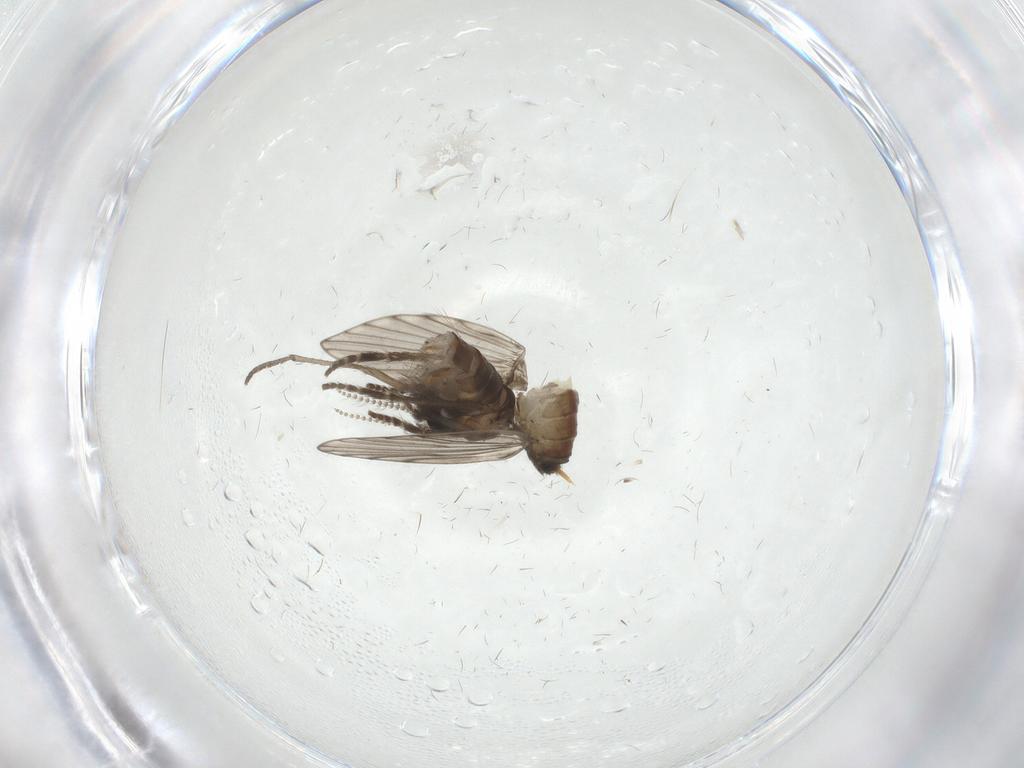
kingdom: Animalia
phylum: Arthropoda
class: Insecta
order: Diptera
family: Psychodidae
